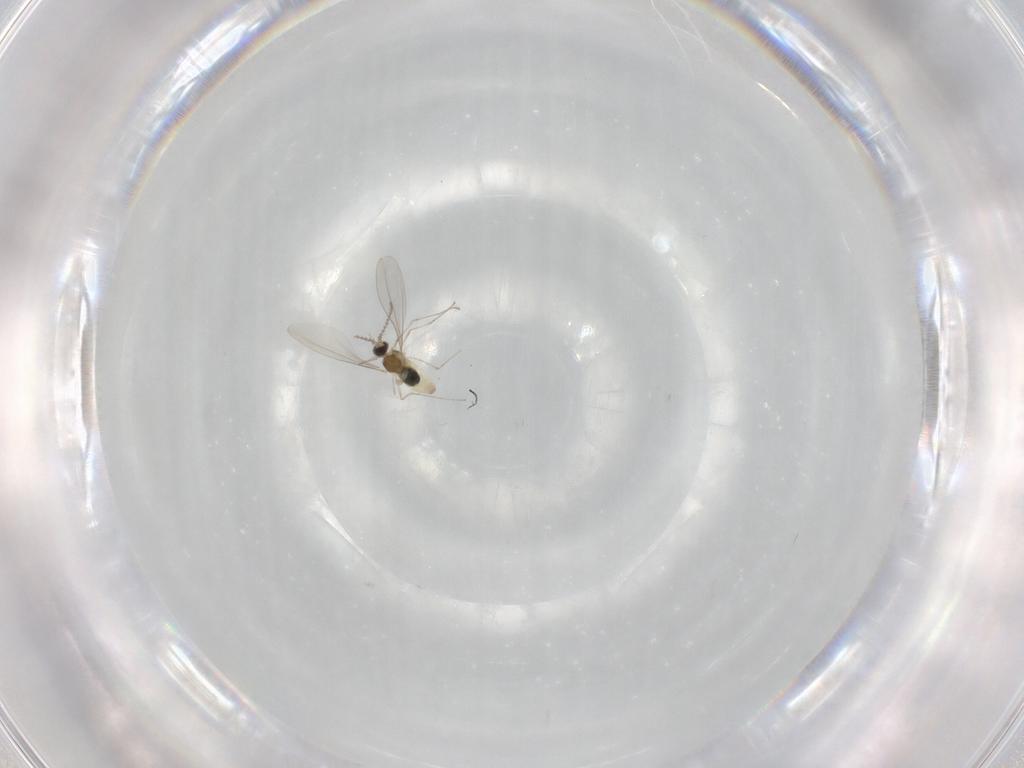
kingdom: Animalia
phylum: Arthropoda
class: Insecta
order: Diptera
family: Cecidomyiidae
